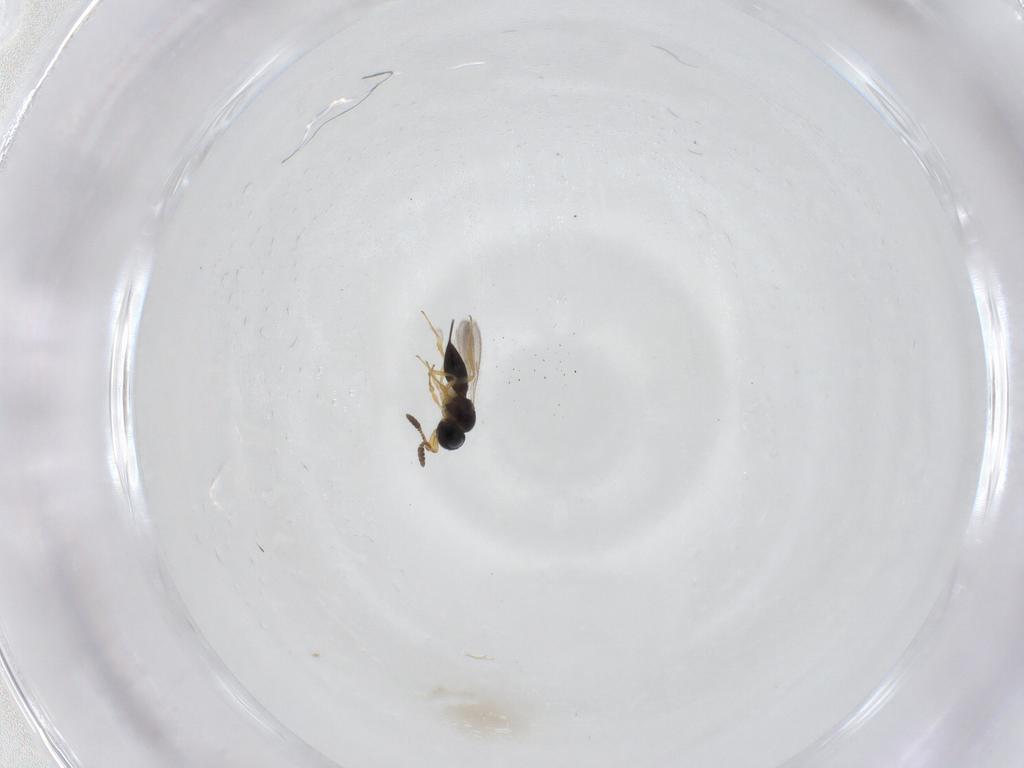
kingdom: Animalia
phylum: Arthropoda
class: Insecta
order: Hymenoptera
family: Scelionidae
